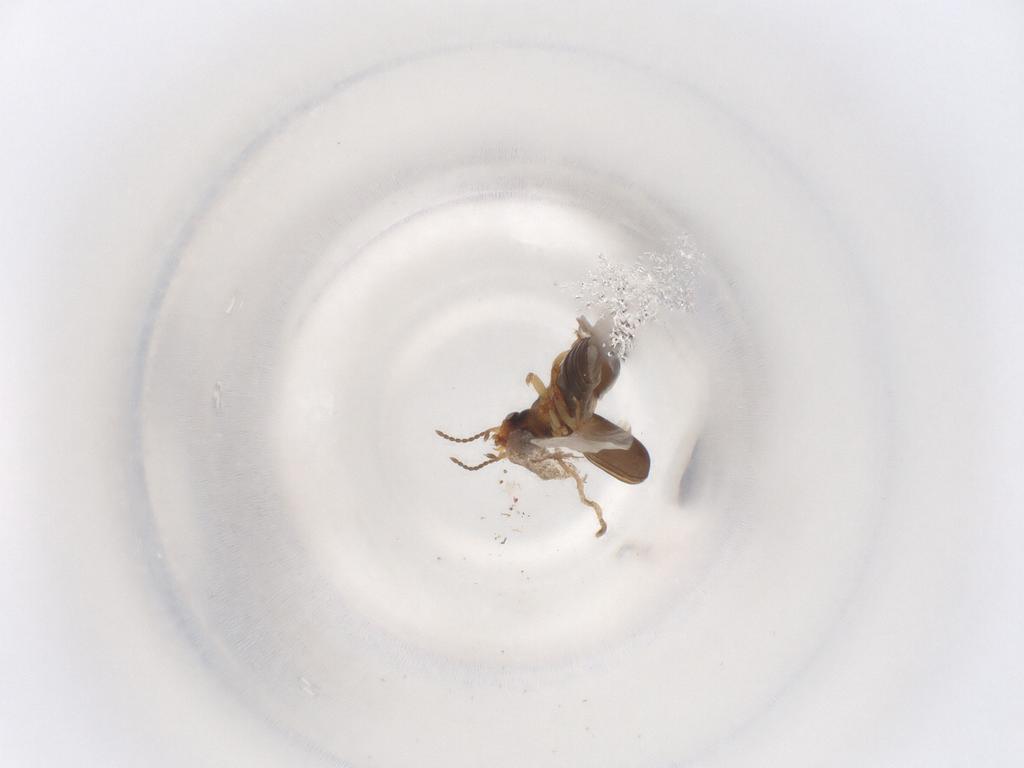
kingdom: Animalia
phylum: Arthropoda
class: Insecta
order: Coleoptera
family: Carabidae
